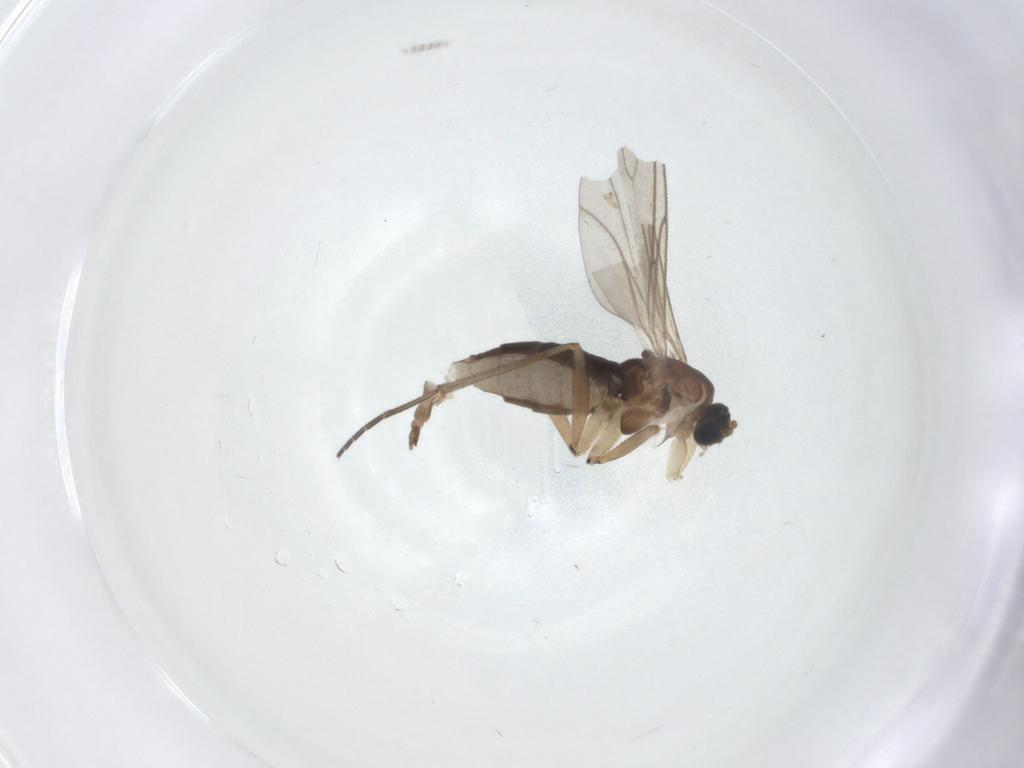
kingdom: Animalia
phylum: Arthropoda
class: Insecta
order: Diptera
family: Sciaridae
